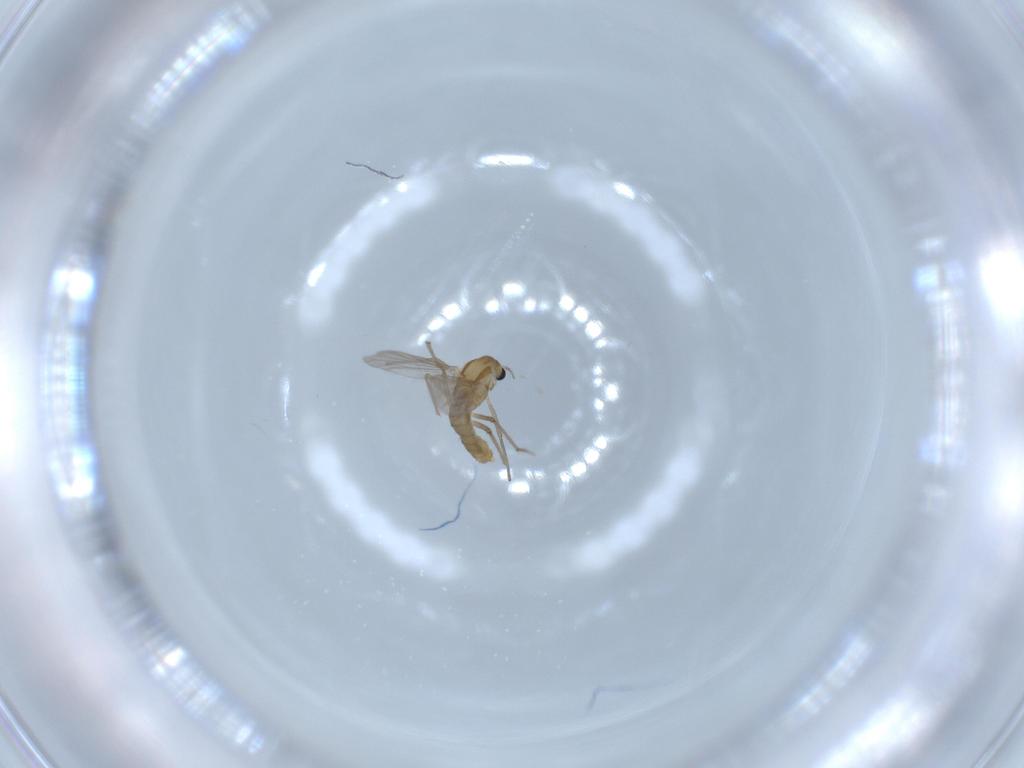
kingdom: Animalia
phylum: Arthropoda
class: Insecta
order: Diptera
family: Chironomidae
